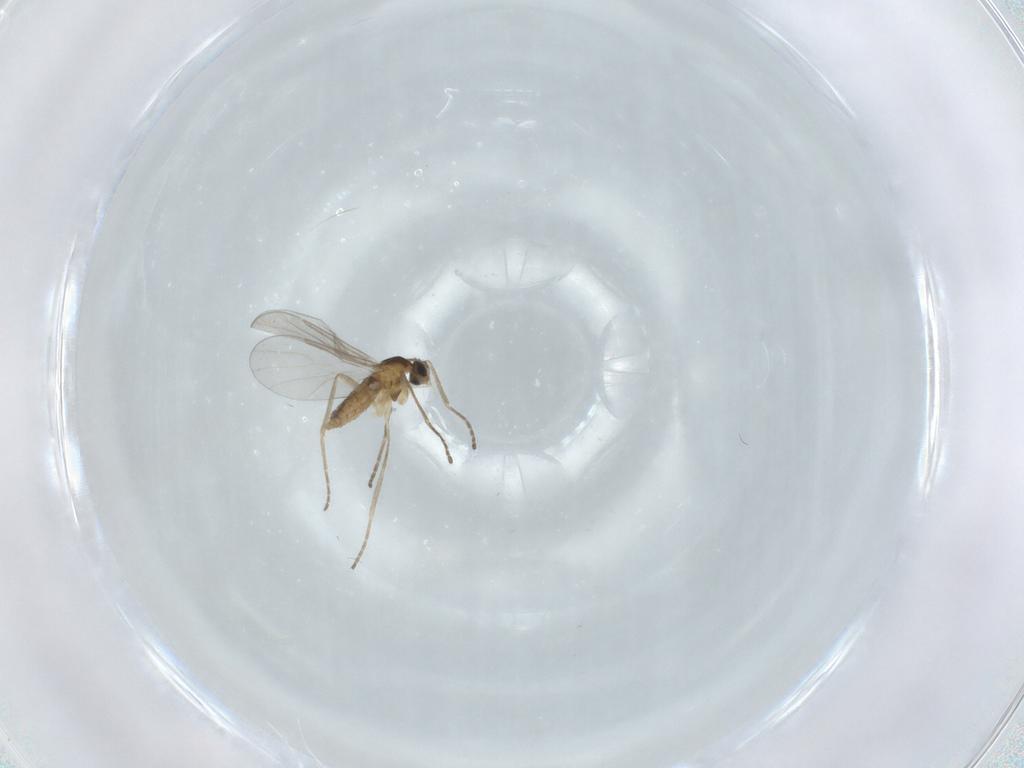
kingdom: Animalia
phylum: Arthropoda
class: Insecta
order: Diptera
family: Cecidomyiidae
